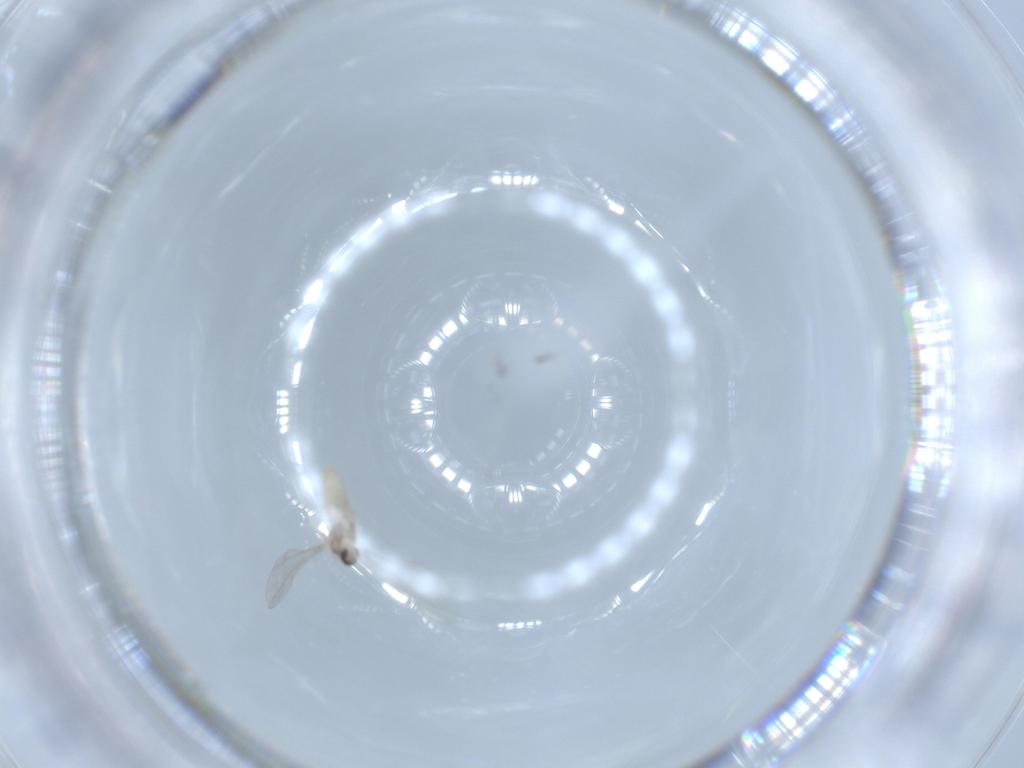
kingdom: Animalia
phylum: Arthropoda
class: Insecta
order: Diptera
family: Cecidomyiidae
